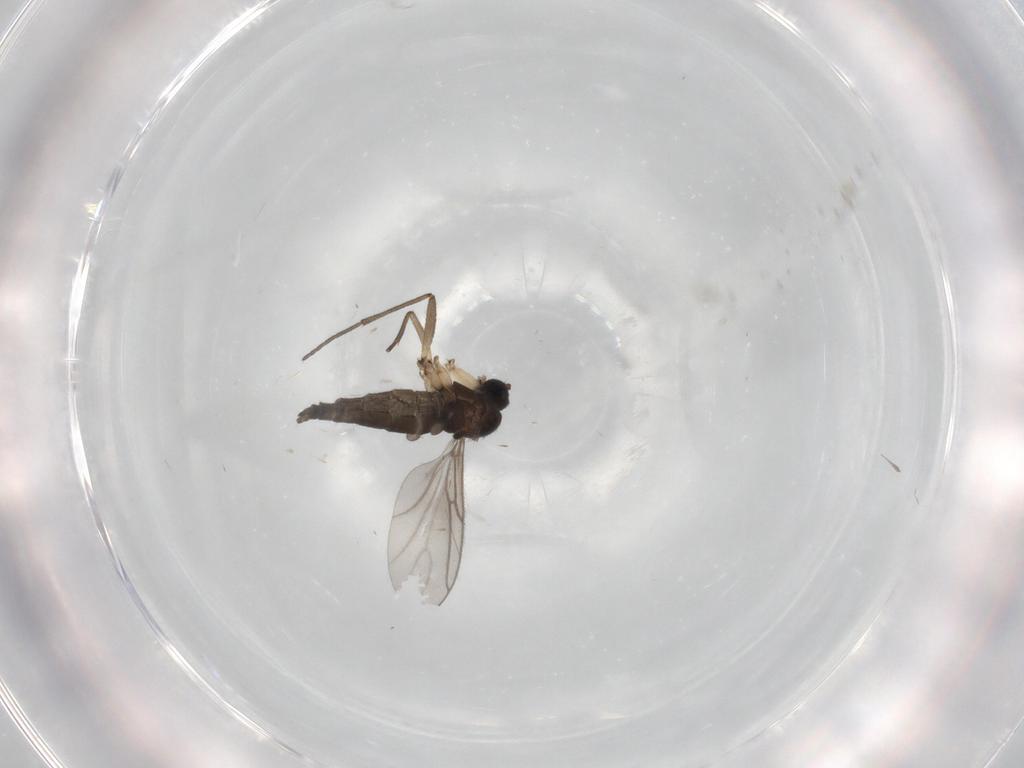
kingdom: Animalia
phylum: Arthropoda
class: Insecta
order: Diptera
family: Sciaridae
